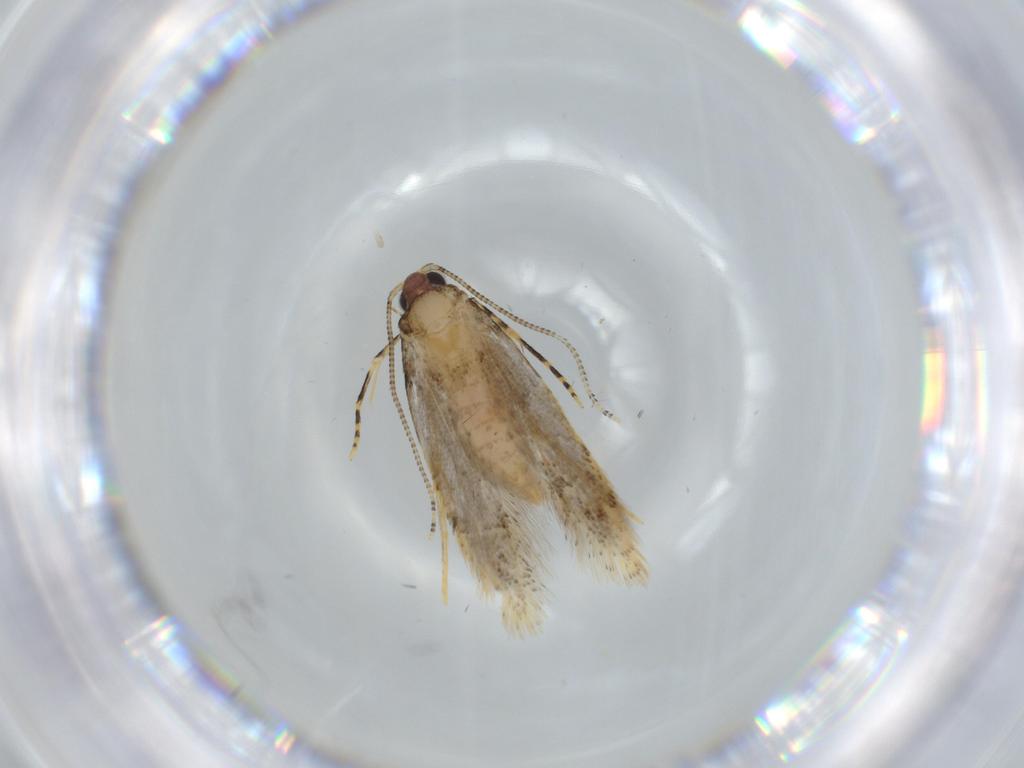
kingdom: Animalia
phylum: Arthropoda
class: Insecta
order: Lepidoptera
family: Tineidae
